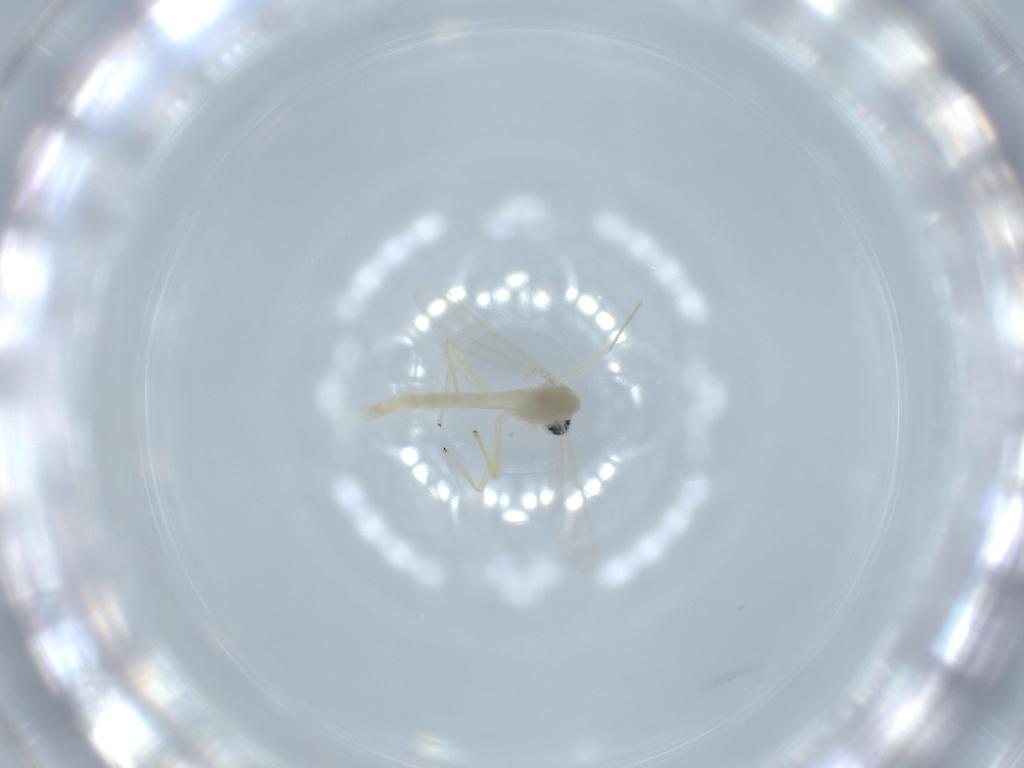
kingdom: Animalia
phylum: Arthropoda
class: Insecta
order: Diptera
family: Chironomidae
